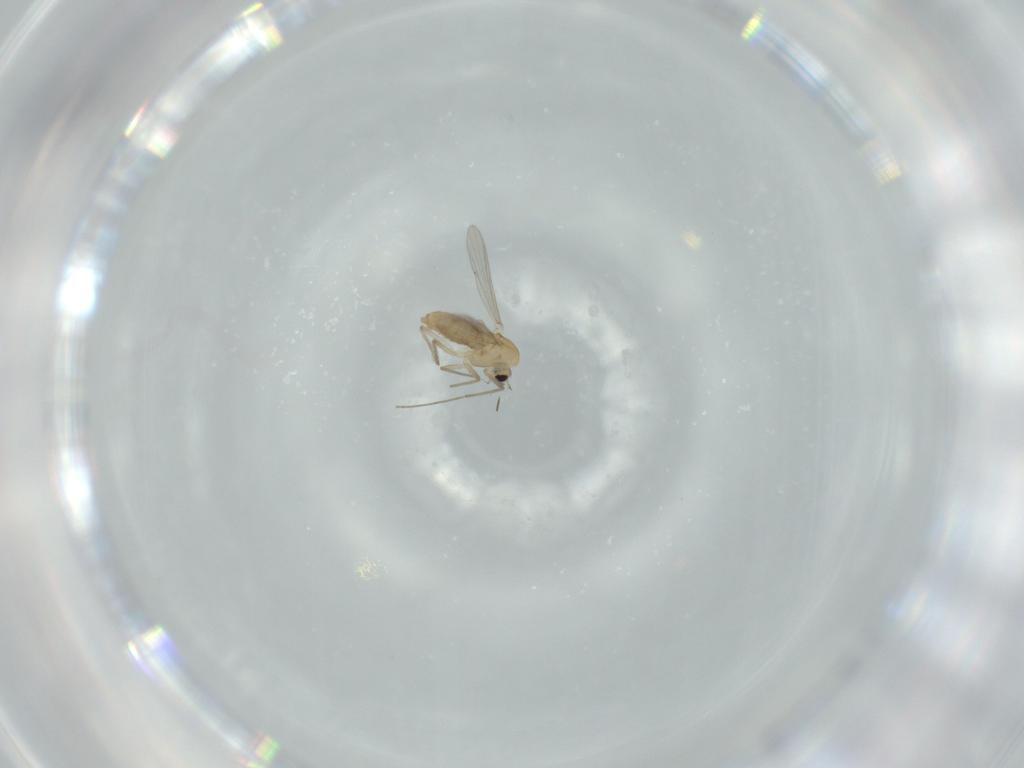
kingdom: Animalia
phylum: Arthropoda
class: Insecta
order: Diptera
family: Chironomidae
